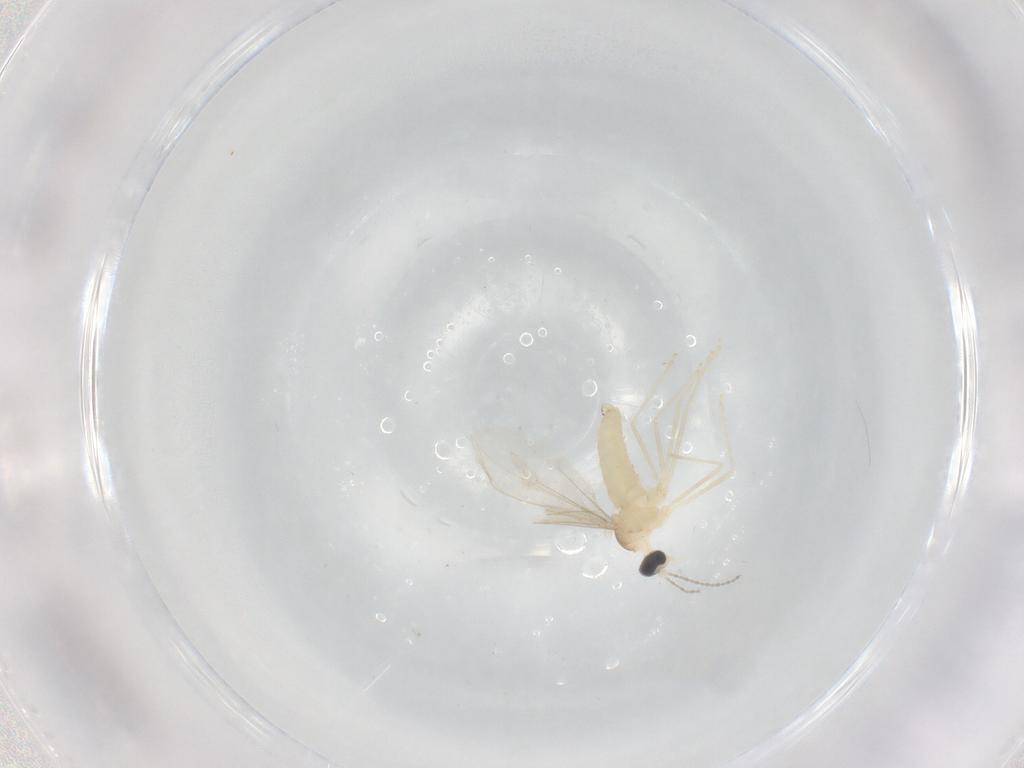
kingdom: Animalia
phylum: Arthropoda
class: Insecta
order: Diptera
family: Cecidomyiidae
